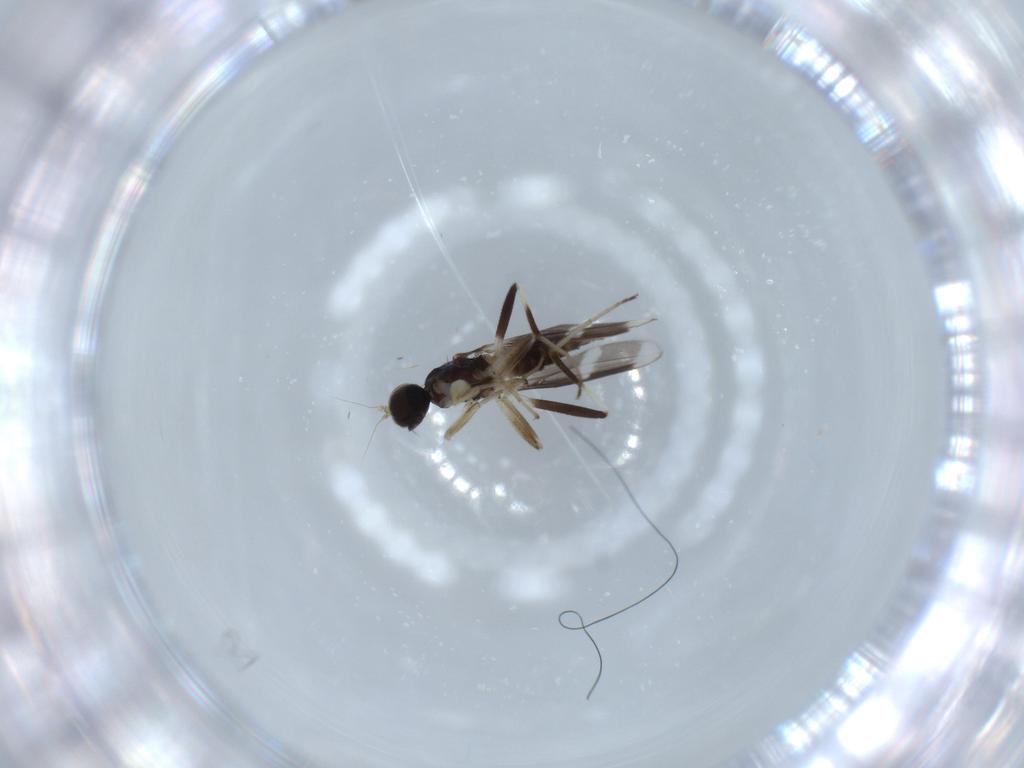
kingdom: Animalia
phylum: Arthropoda
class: Insecta
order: Diptera
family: Hybotidae
